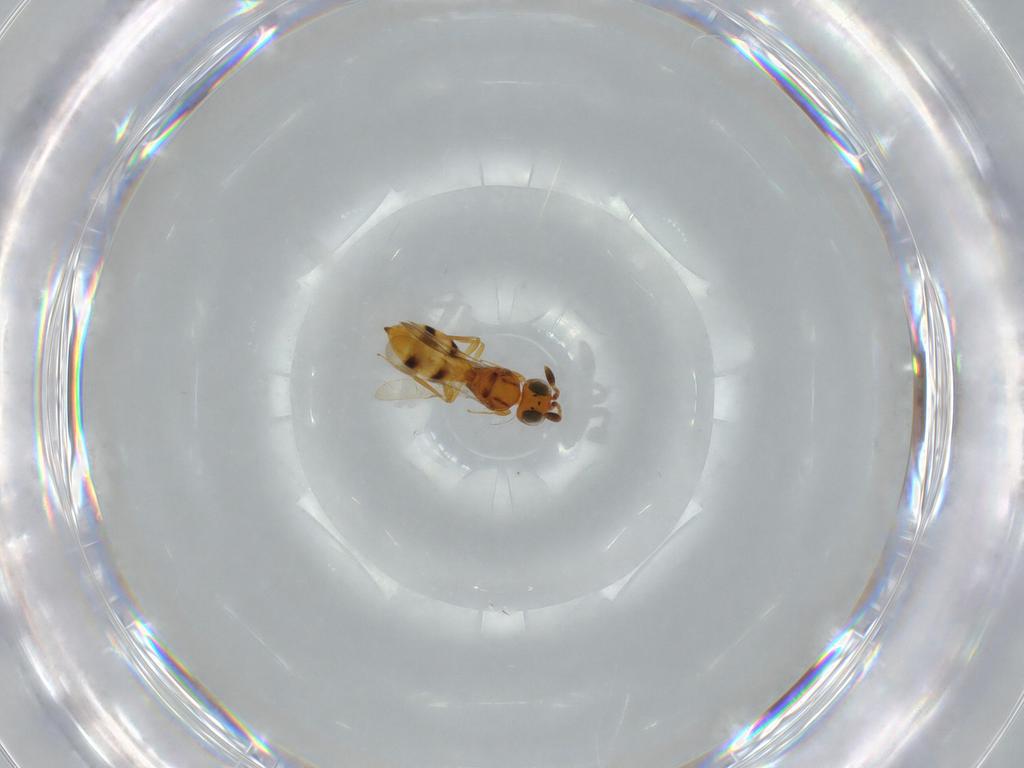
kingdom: Animalia
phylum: Arthropoda
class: Insecta
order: Hymenoptera
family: Scelionidae
